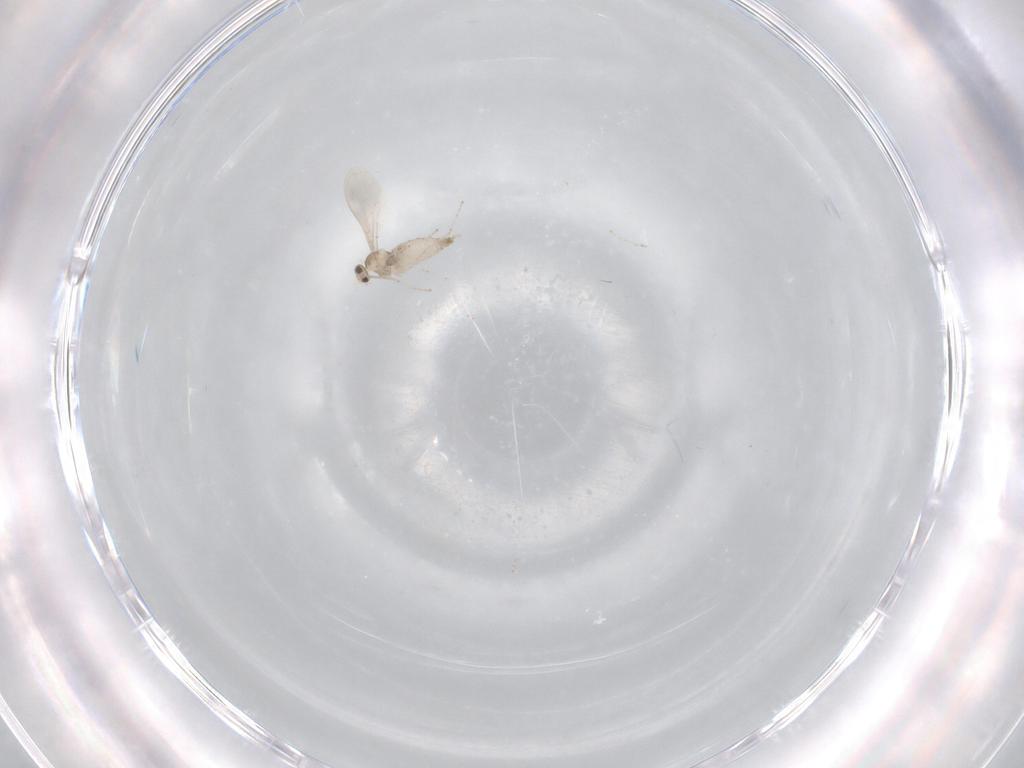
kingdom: Animalia
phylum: Arthropoda
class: Insecta
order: Diptera
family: Cecidomyiidae
